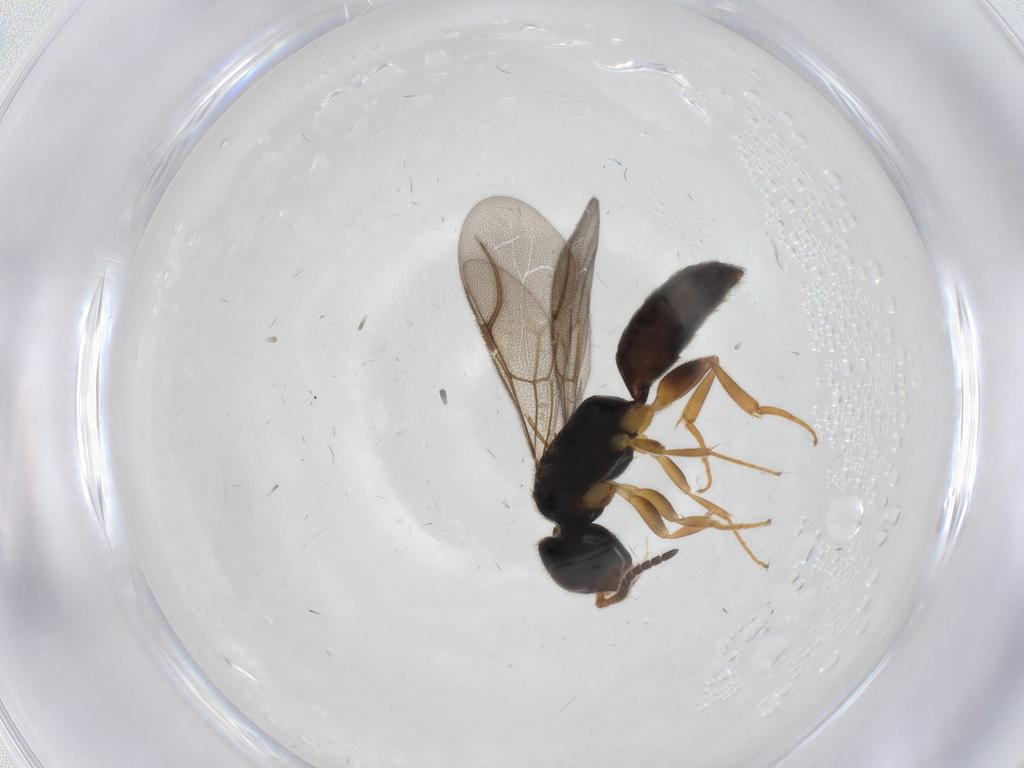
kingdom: Animalia
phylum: Arthropoda
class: Insecta
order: Hymenoptera
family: Bethylidae
